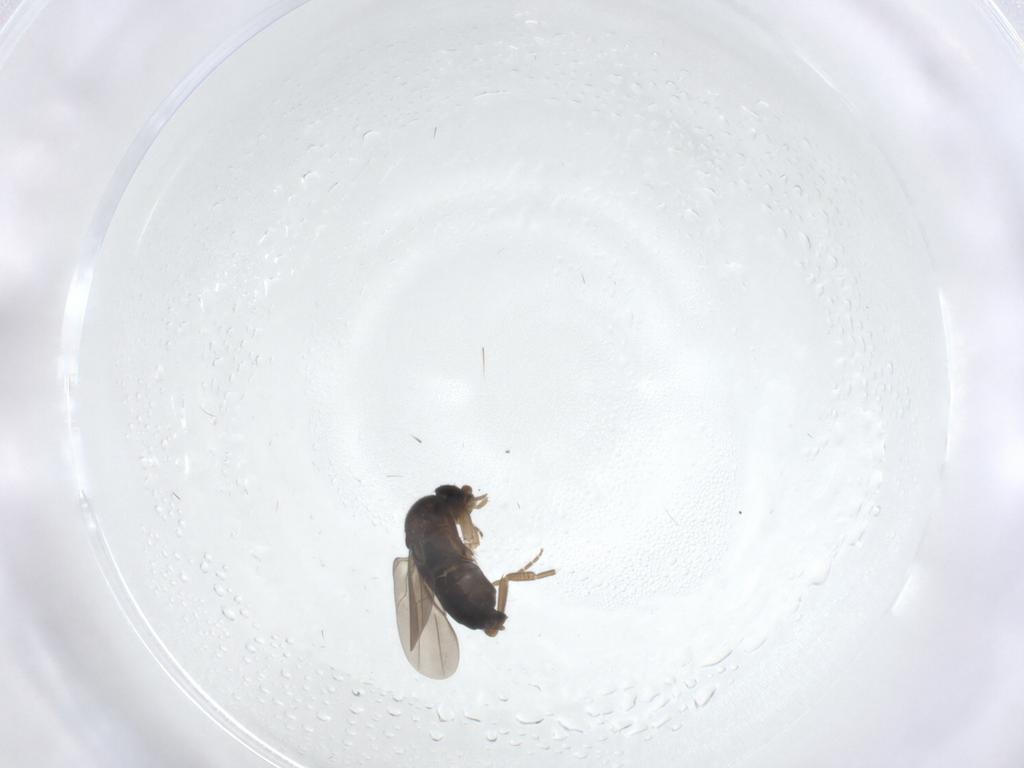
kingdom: Animalia
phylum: Arthropoda
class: Insecta
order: Diptera
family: Phoridae
